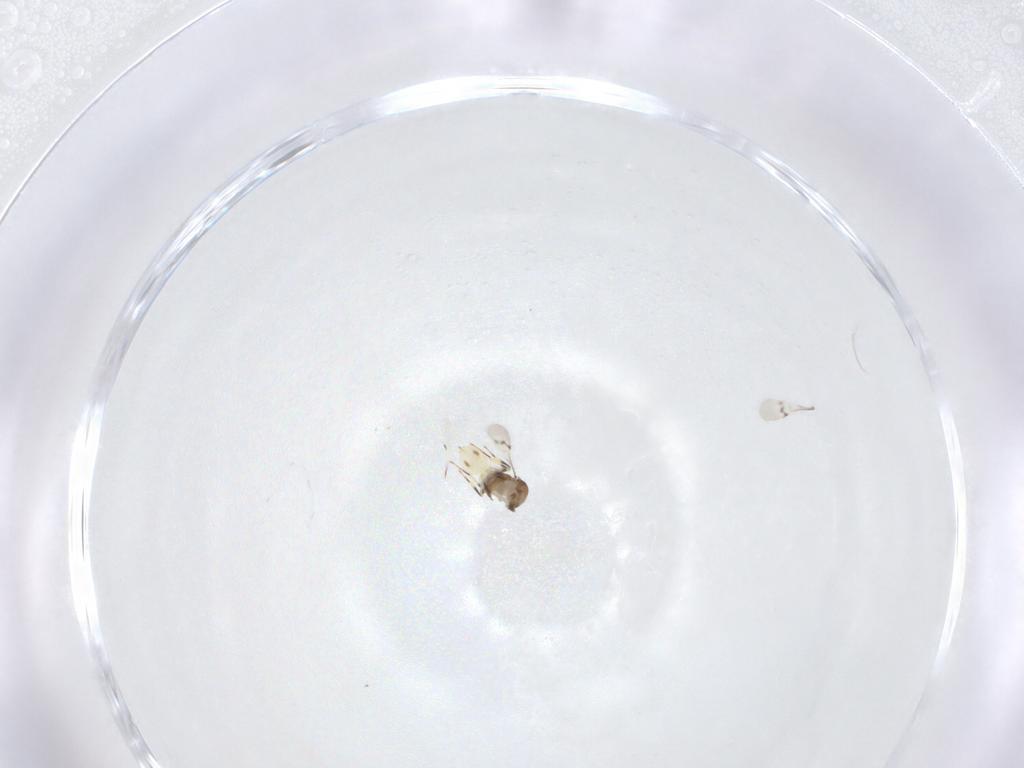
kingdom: Animalia
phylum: Arthropoda
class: Insecta
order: Hymenoptera
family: Scelionidae
